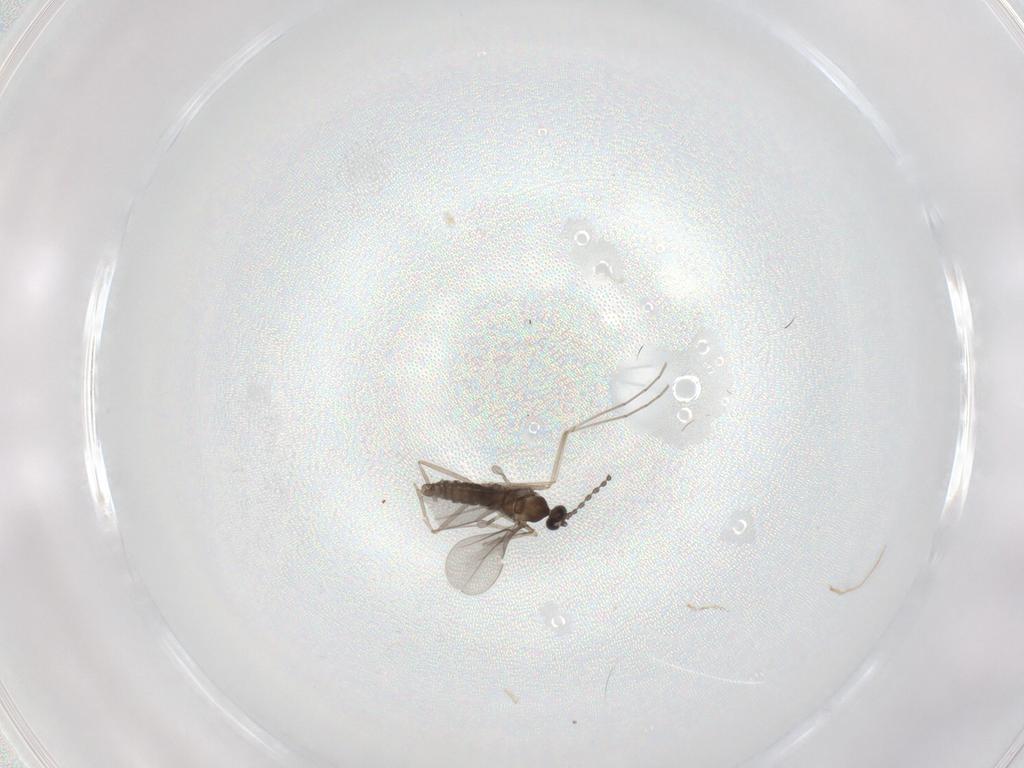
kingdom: Animalia
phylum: Arthropoda
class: Insecta
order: Diptera
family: Cecidomyiidae
